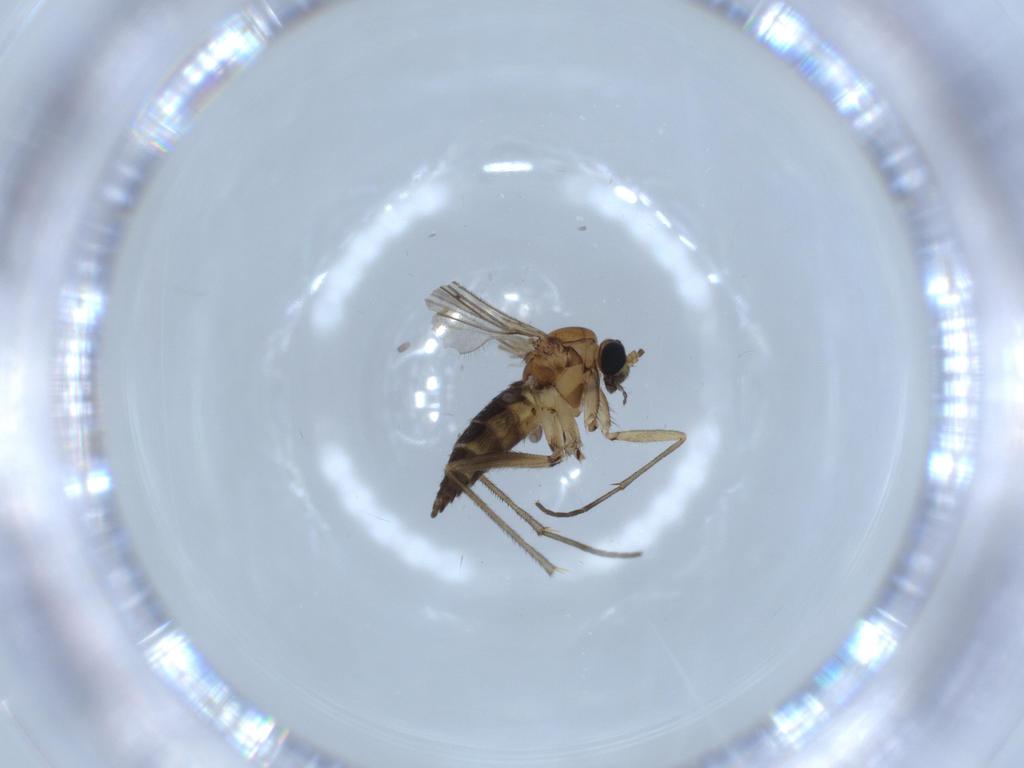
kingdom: Animalia
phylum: Arthropoda
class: Insecta
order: Diptera
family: Sciaridae
